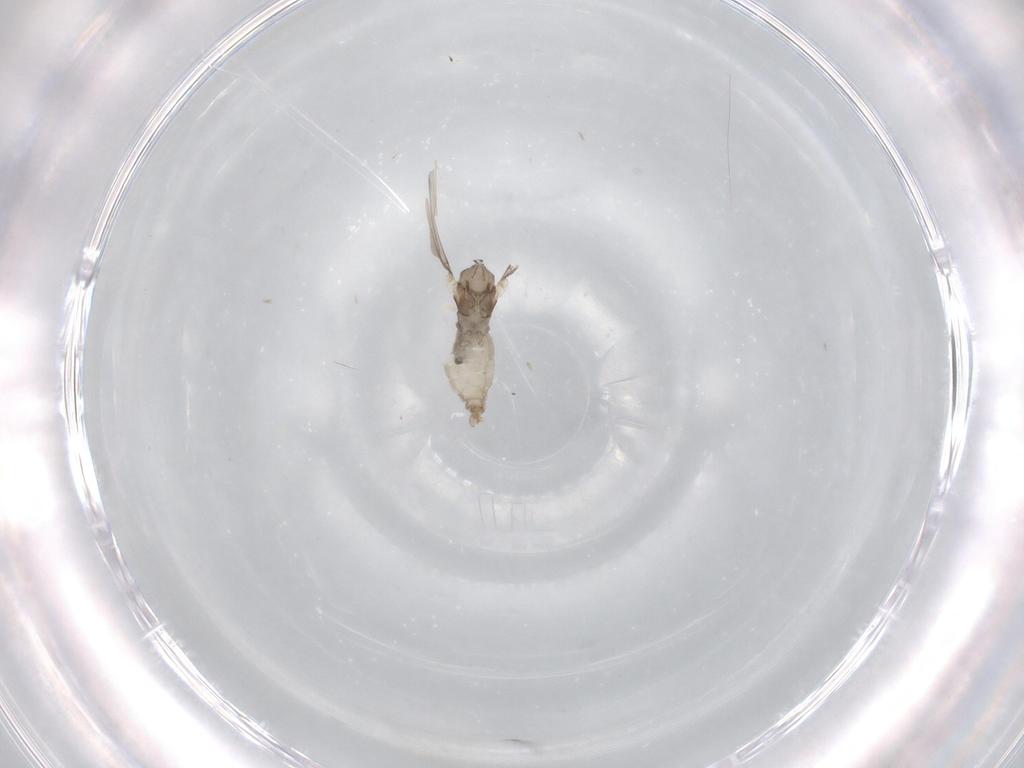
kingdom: Animalia
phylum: Arthropoda
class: Insecta
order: Diptera
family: Cecidomyiidae
